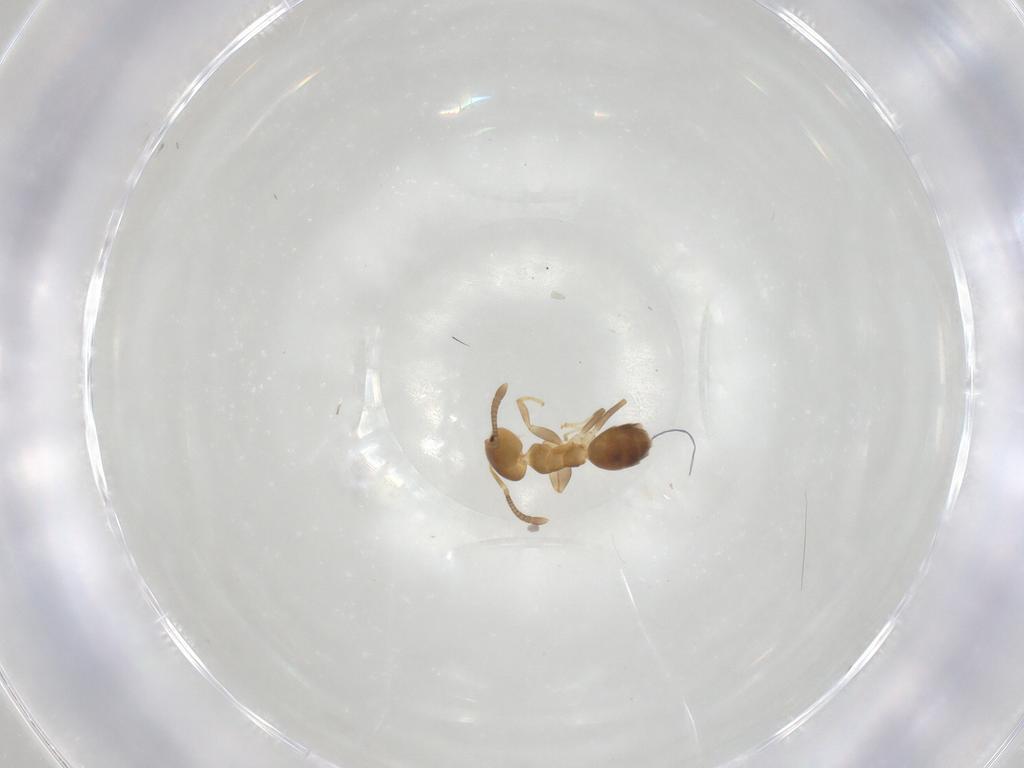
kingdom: Animalia
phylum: Arthropoda
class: Insecta
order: Hymenoptera
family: Formicidae
